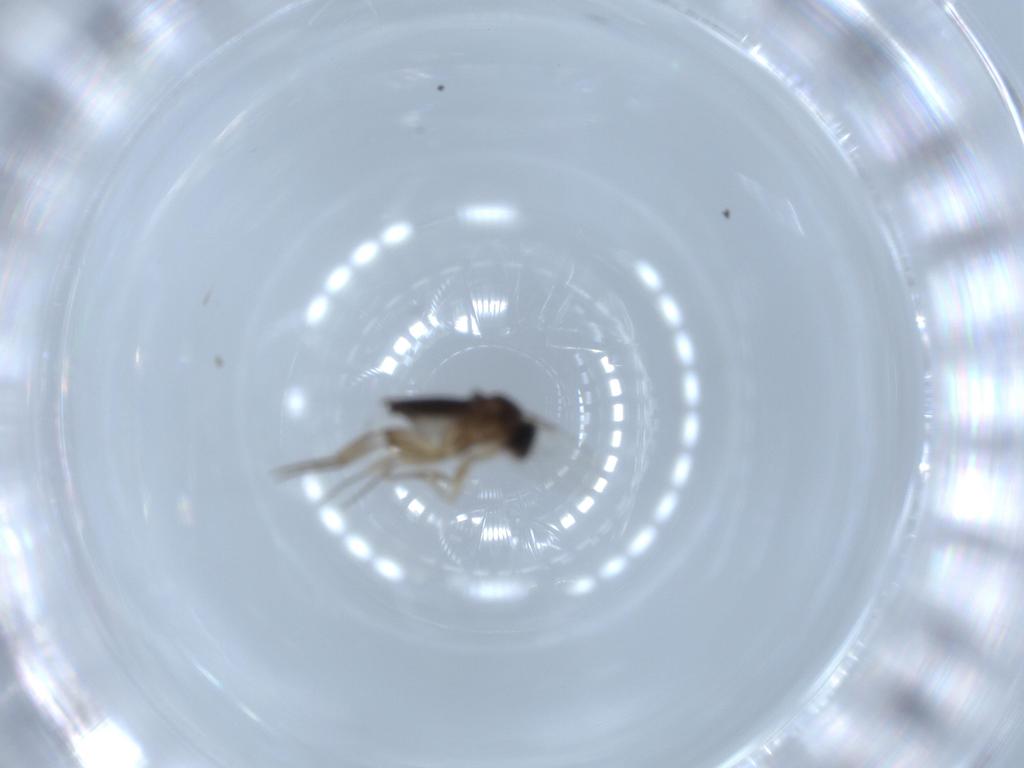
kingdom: Animalia
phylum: Arthropoda
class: Insecta
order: Diptera
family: Phoridae
